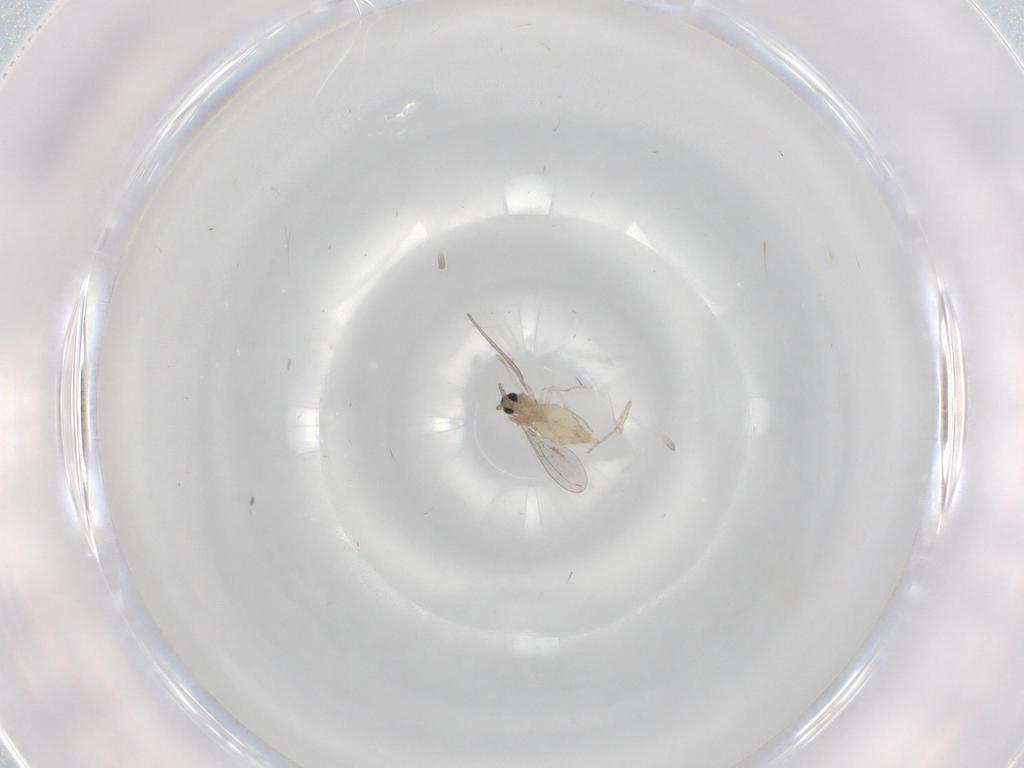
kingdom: Animalia
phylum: Arthropoda
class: Insecta
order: Diptera
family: Cecidomyiidae
